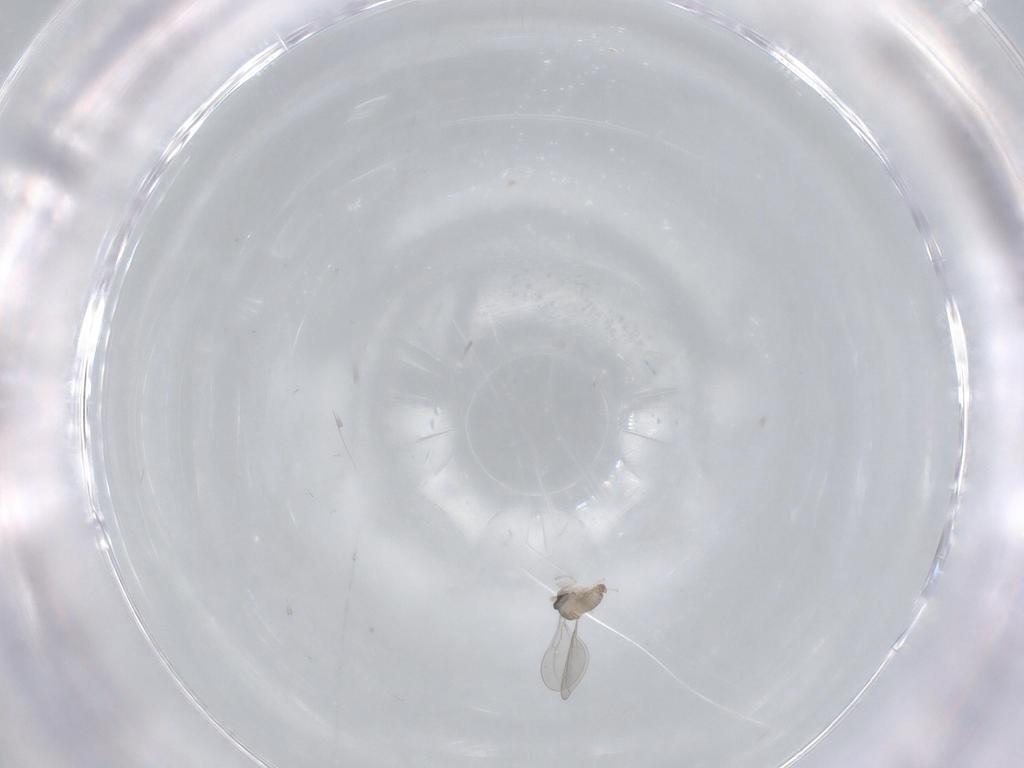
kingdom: Animalia
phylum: Arthropoda
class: Insecta
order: Diptera
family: Cecidomyiidae
